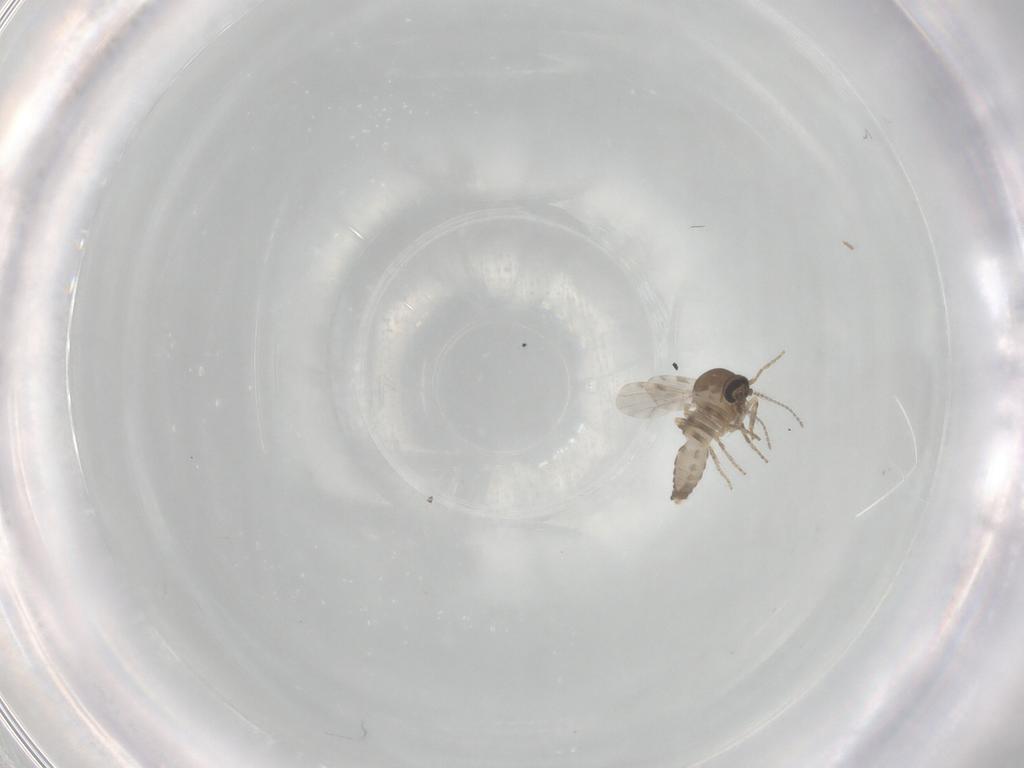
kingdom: Animalia
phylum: Arthropoda
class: Insecta
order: Diptera
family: Ceratopogonidae
